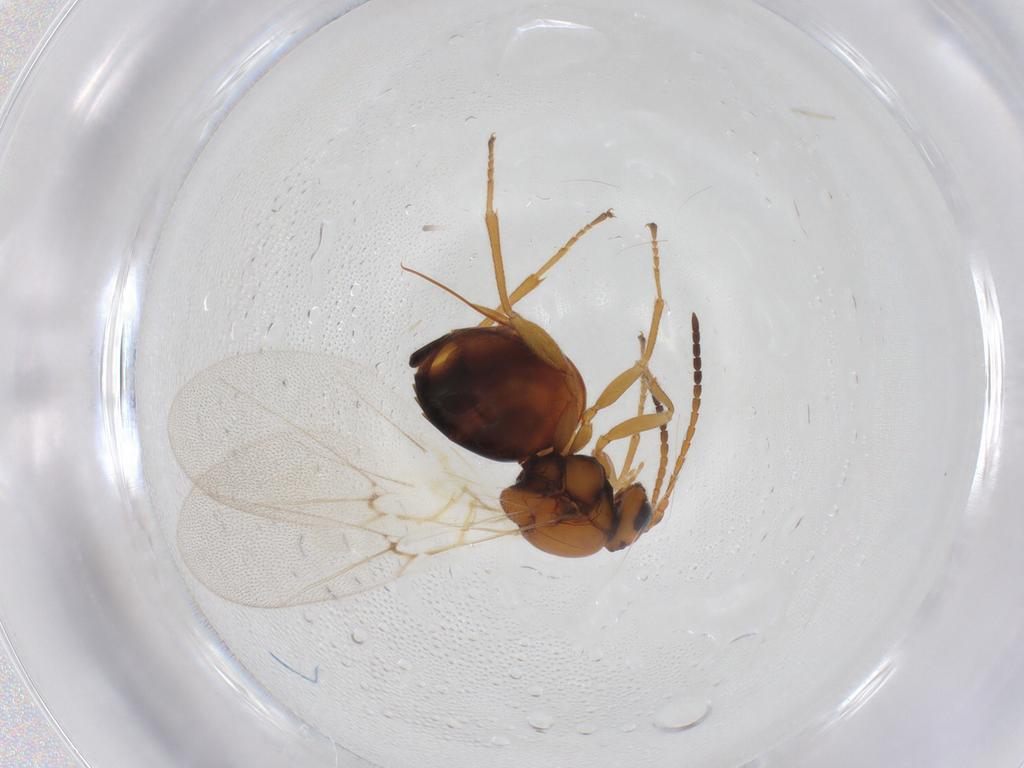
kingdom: Animalia
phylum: Arthropoda
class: Insecta
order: Hymenoptera
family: Cynipidae
